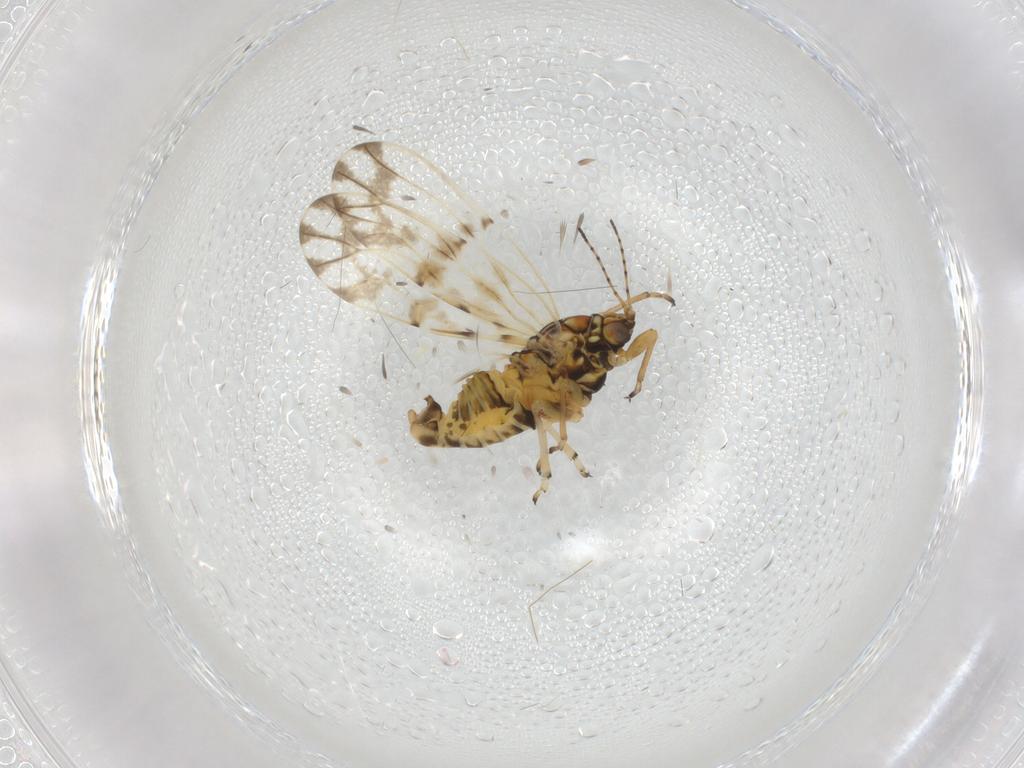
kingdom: Animalia
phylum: Arthropoda
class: Insecta
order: Hemiptera
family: Psylloidea_incertae_sedis
